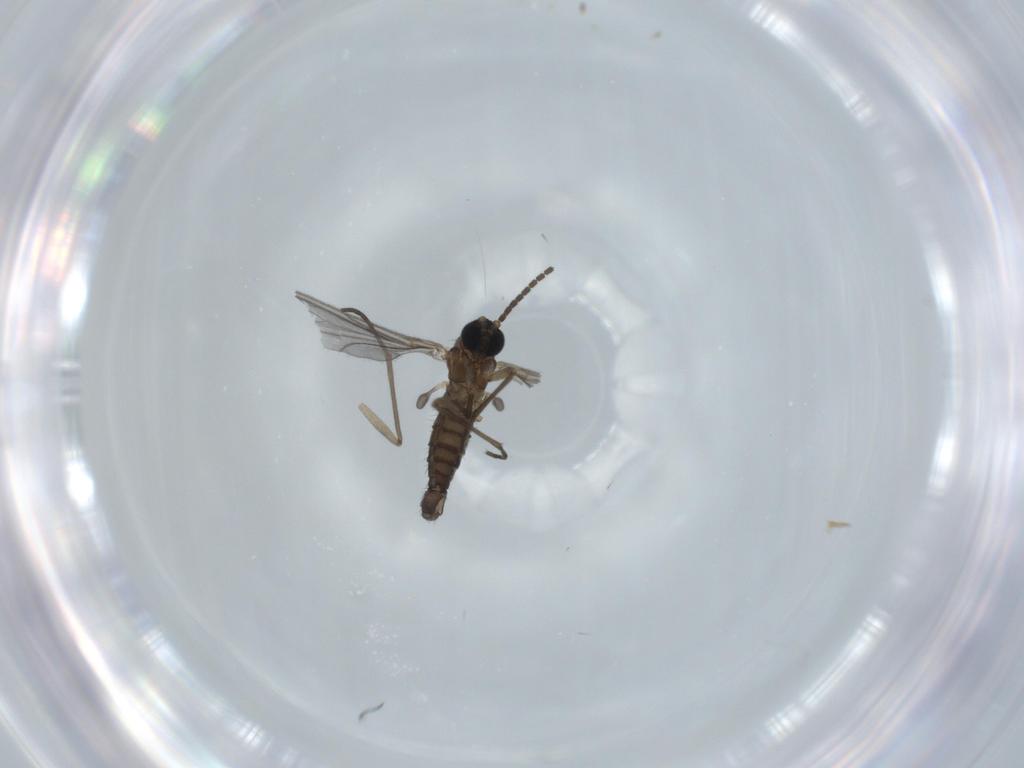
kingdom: Animalia
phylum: Arthropoda
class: Insecta
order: Diptera
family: Sciaridae
